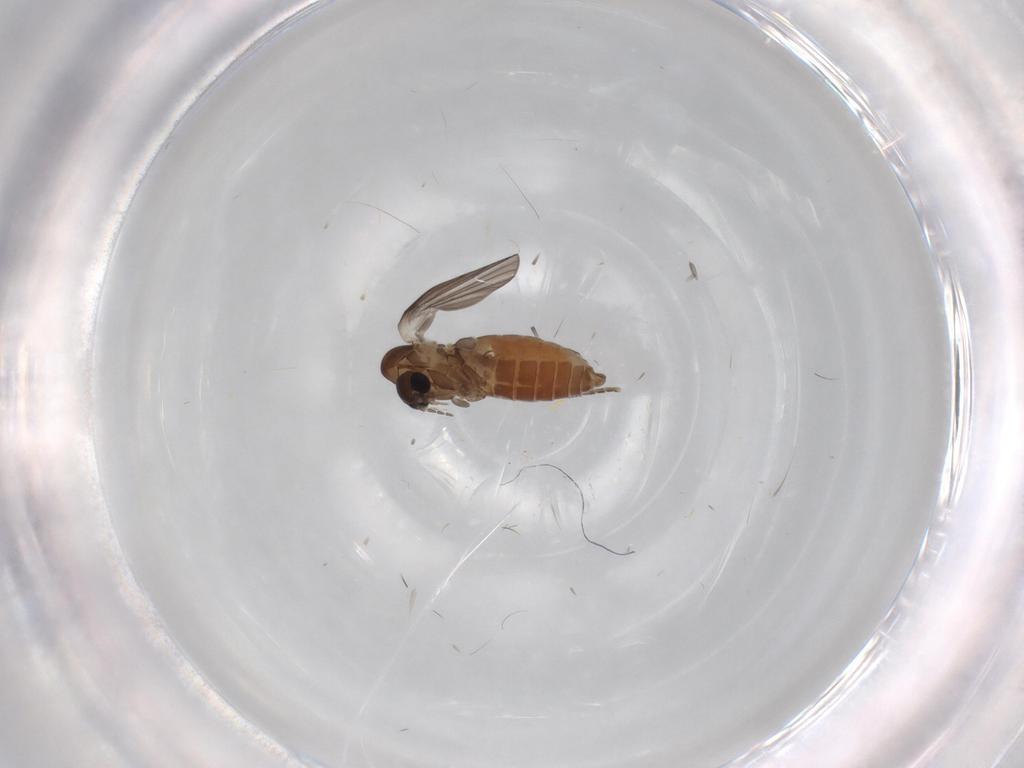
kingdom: Animalia
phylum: Arthropoda
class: Insecta
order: Diptera
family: Psychodidae
